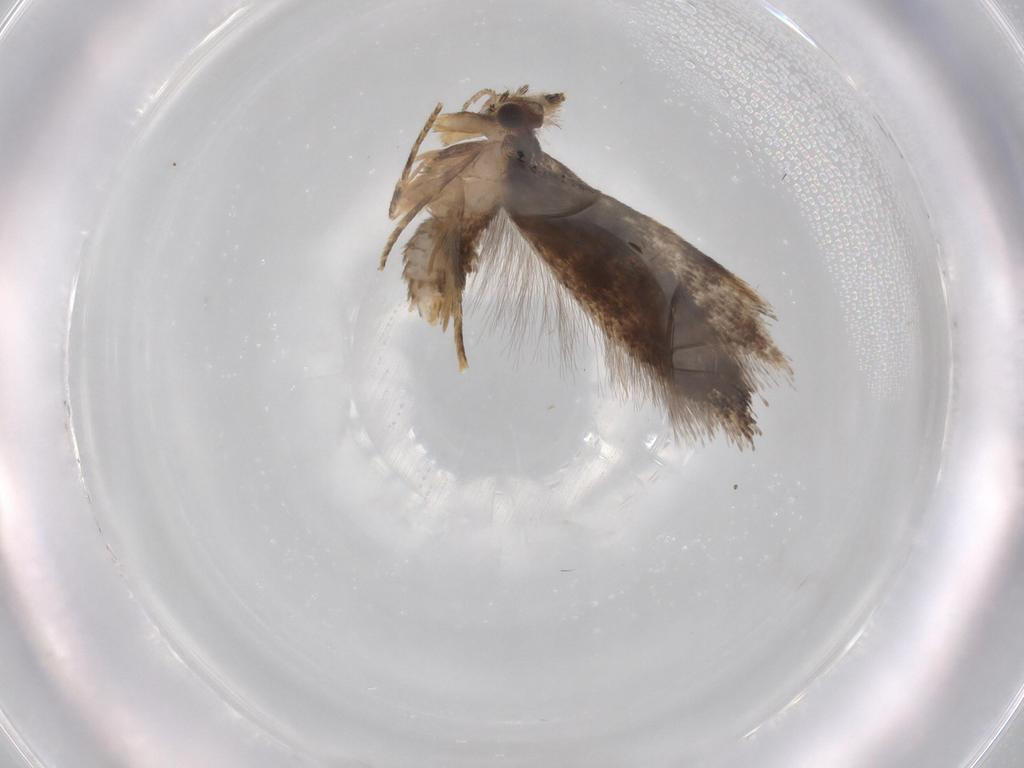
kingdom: Animalia
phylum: Arthropoda
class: Insecta
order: Lepidoptera
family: Tineidae
